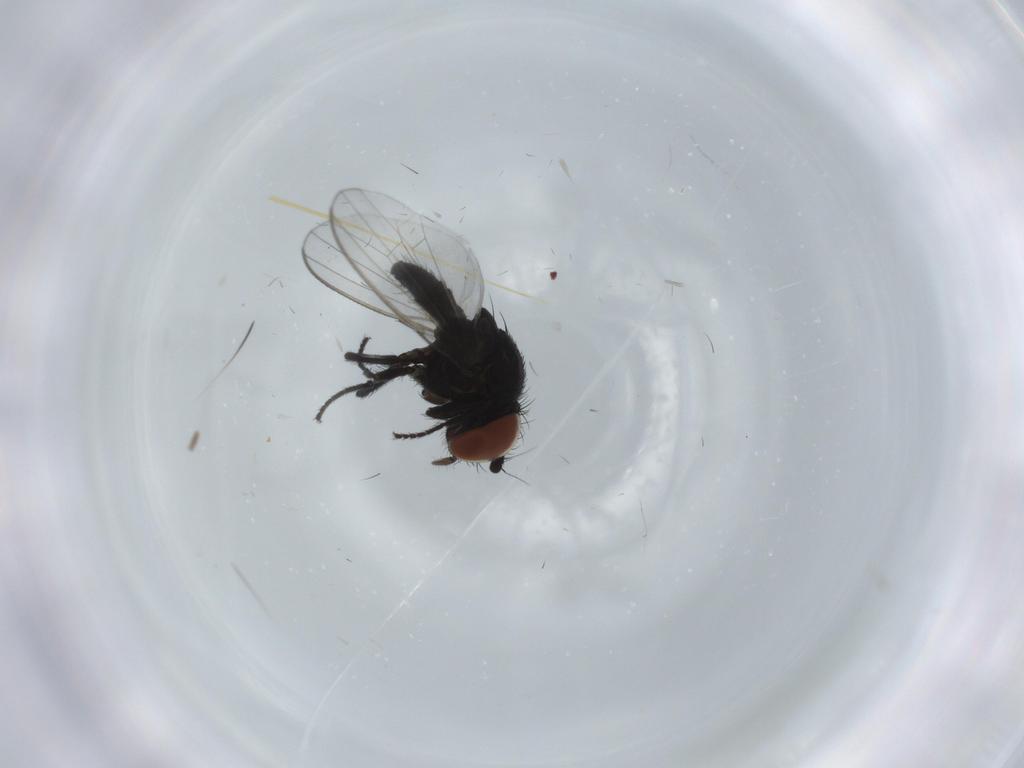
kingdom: Animalia
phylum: Arthropoda
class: Insecta
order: Diptera
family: Milichiidae
